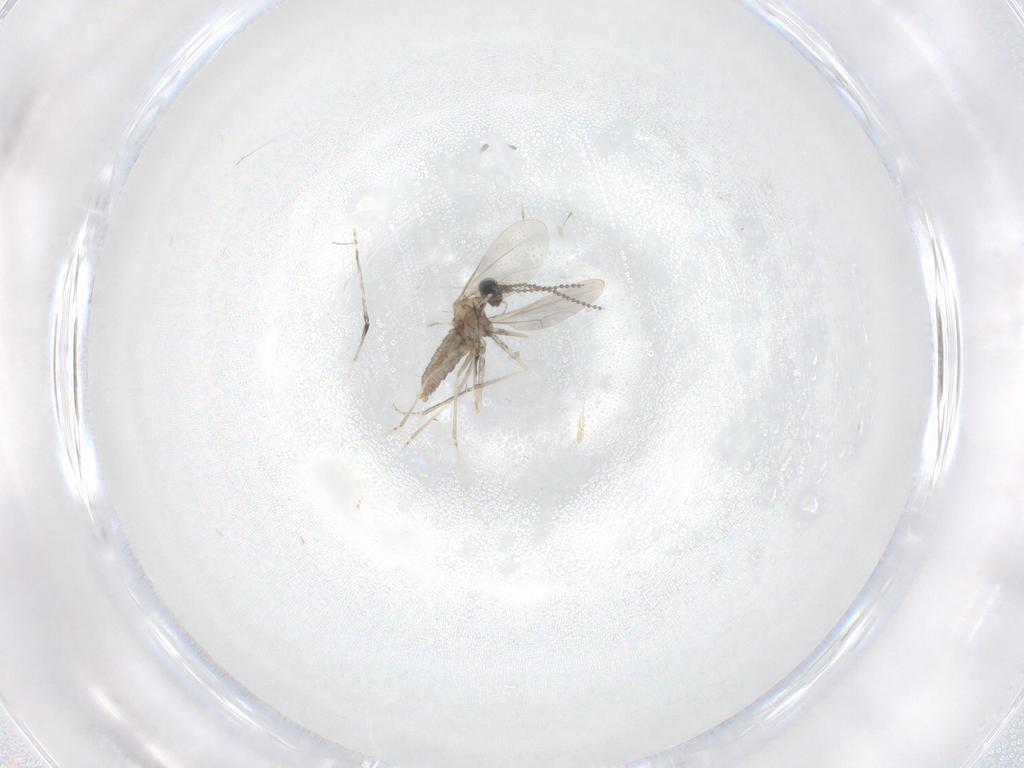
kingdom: Animalia
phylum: Arthropoda
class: Insecta
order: Diptera
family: Cecidomyiidae
